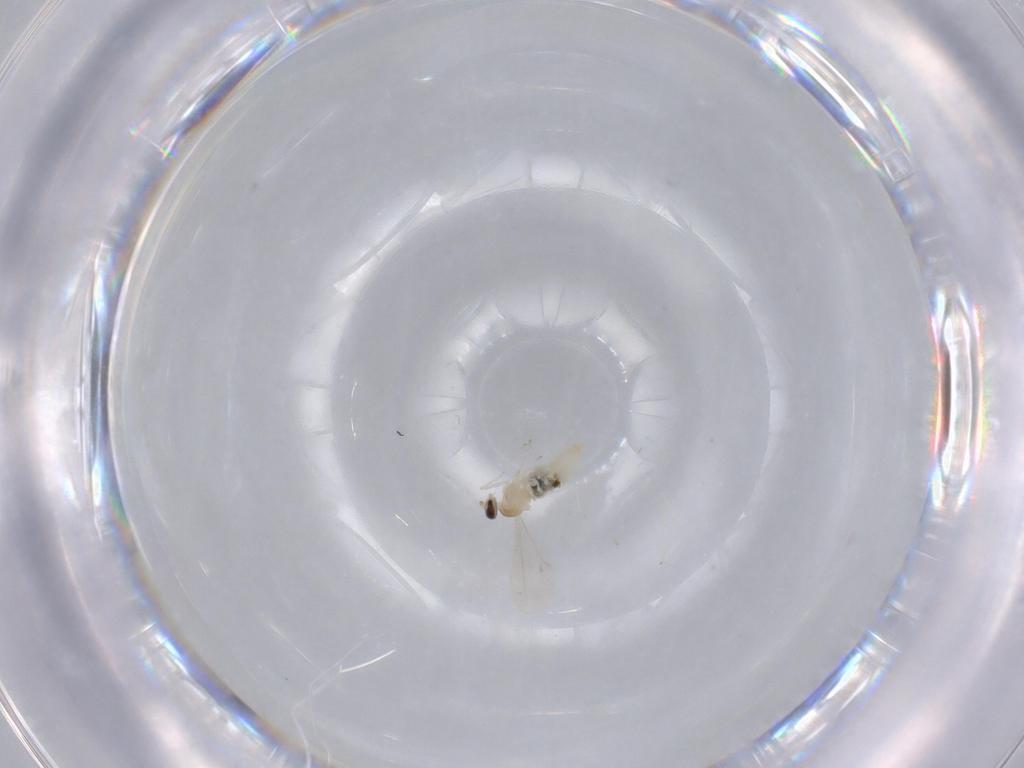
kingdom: Animalia
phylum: Arthropoda
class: Insecta
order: Diptera
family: Cecidomyiidae
